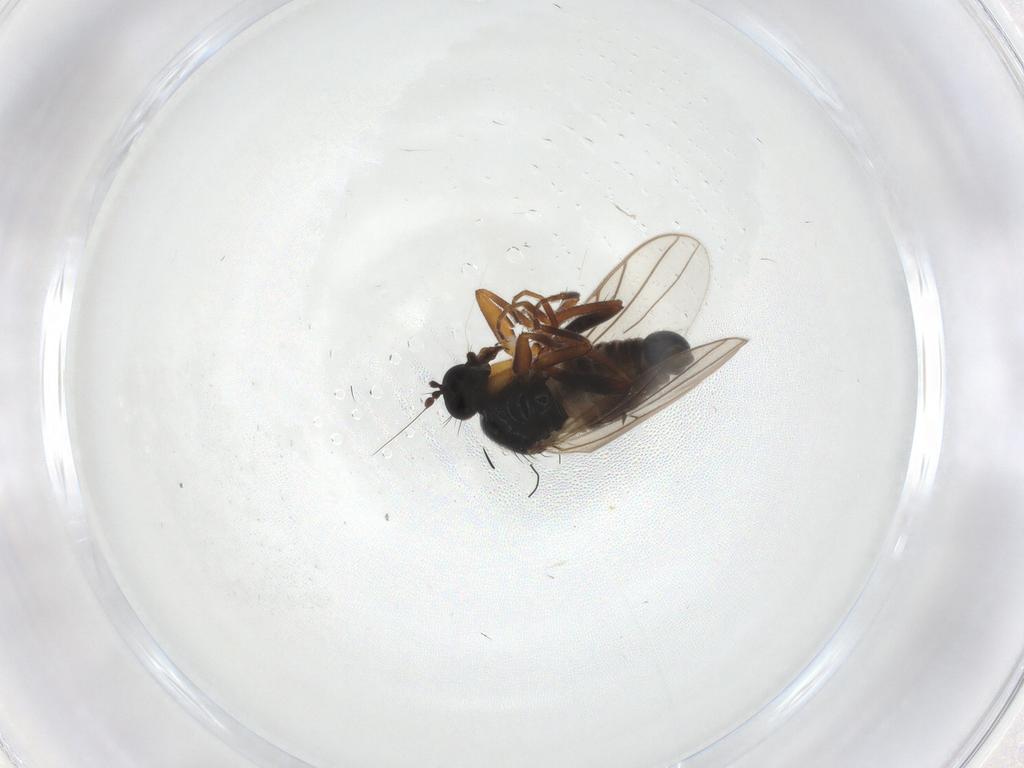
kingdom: Animalia
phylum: Arthropoda
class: Insecta
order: Diptera
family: Hybotidae
